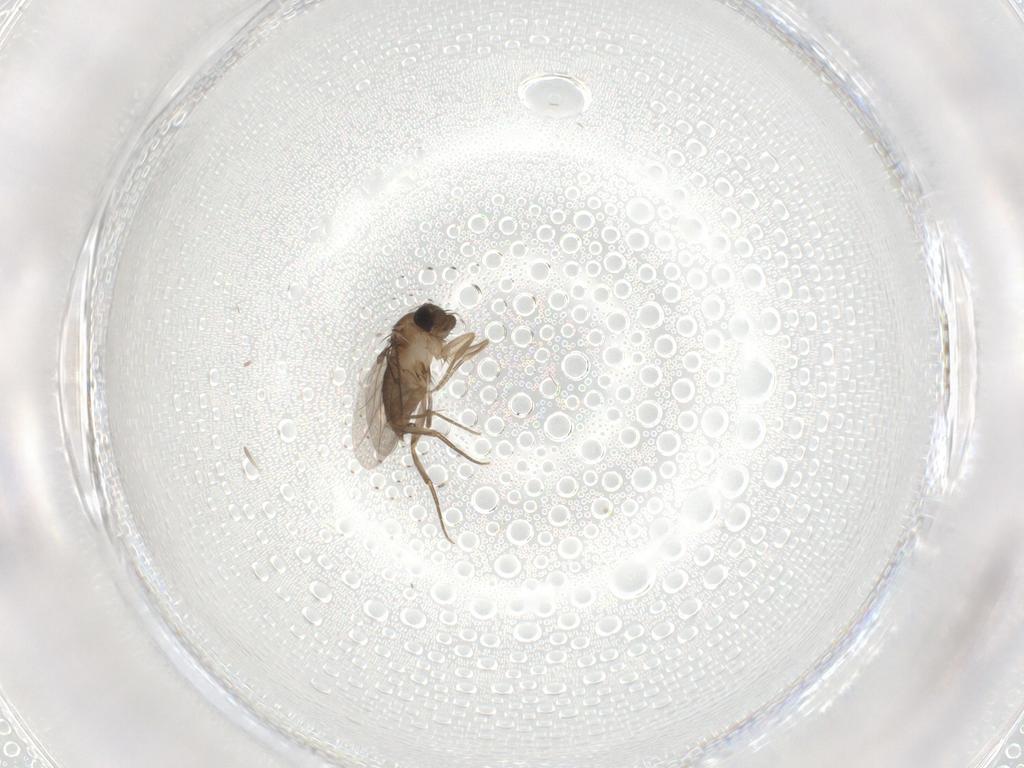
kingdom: Animalia
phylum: Arthropoda
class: Insecta
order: Diptera
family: Phoridae
